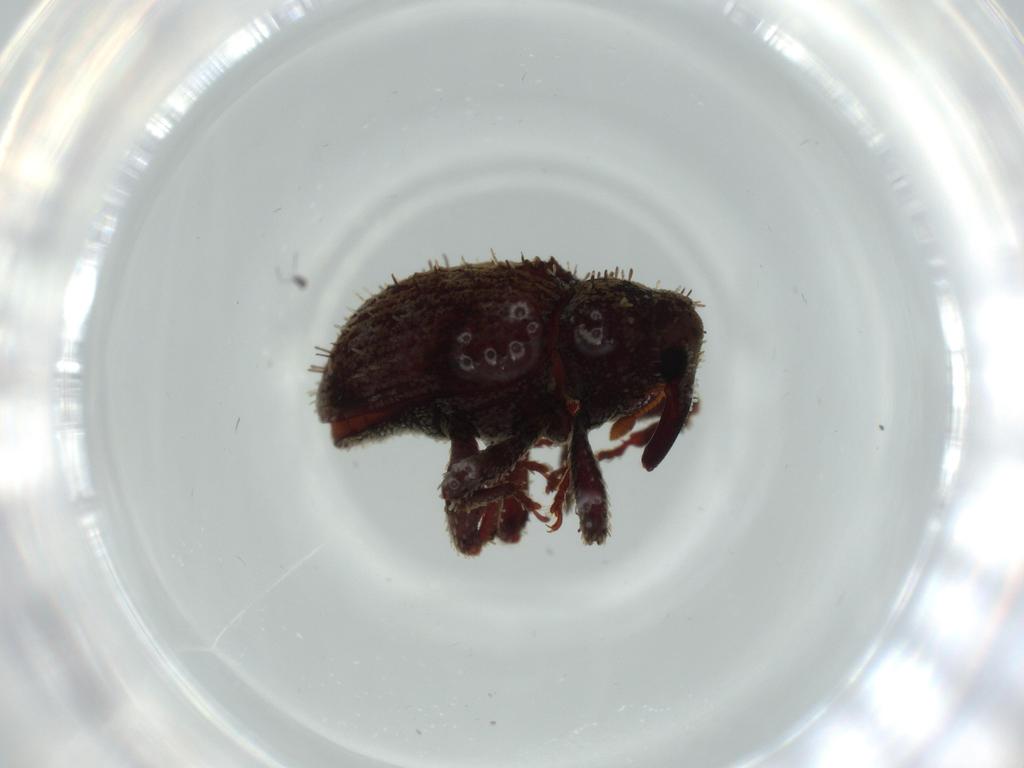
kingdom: Animalia
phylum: Arthropoda
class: Insecta
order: Coleoptera
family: Curculionidae
